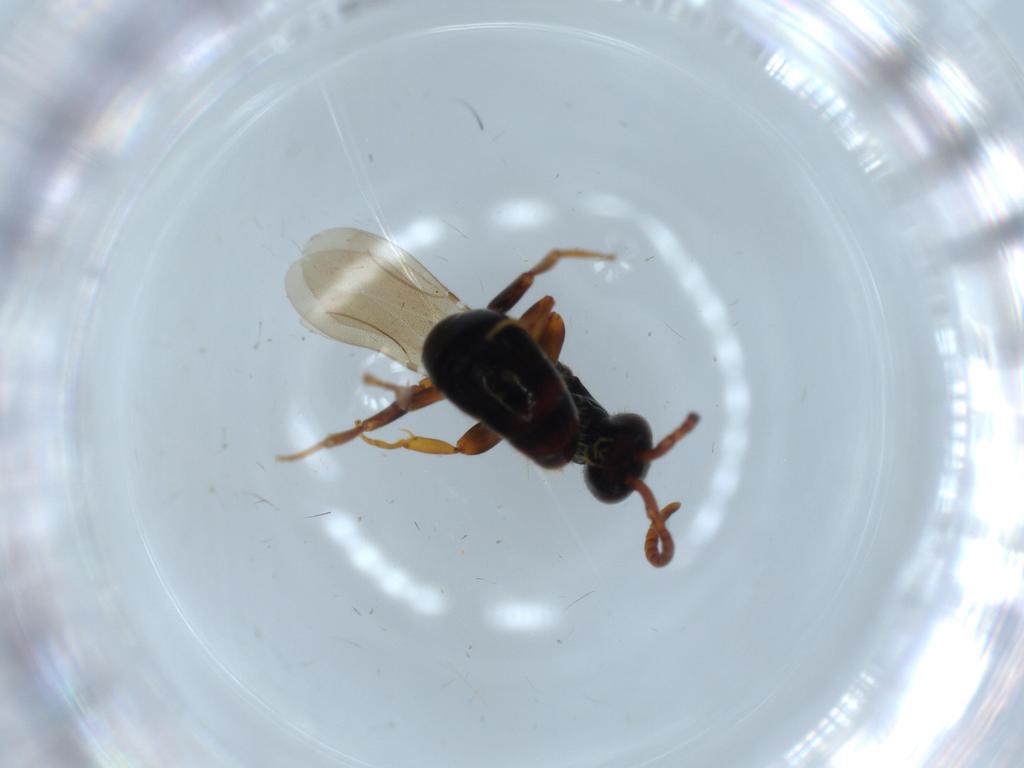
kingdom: Animalia
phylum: Arthropoda
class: Insecta
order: Hymenoptera
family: Bethylidae
